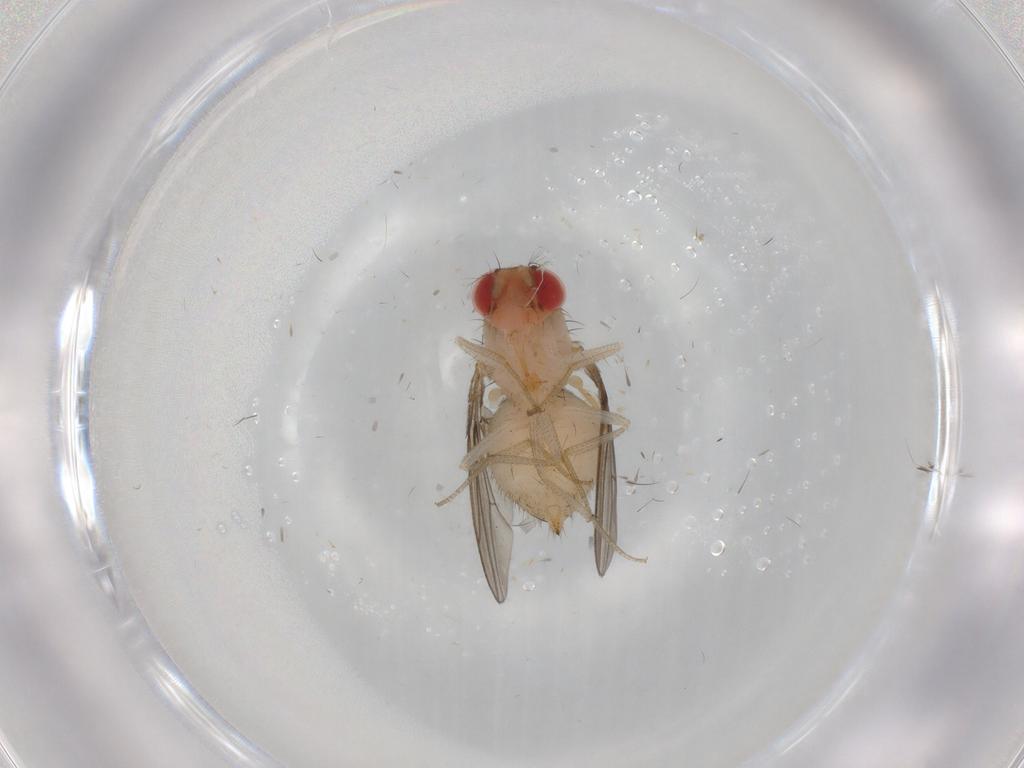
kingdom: Animalia
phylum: Arthropoda
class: Insecta
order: Diptera
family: Drosophilidae
